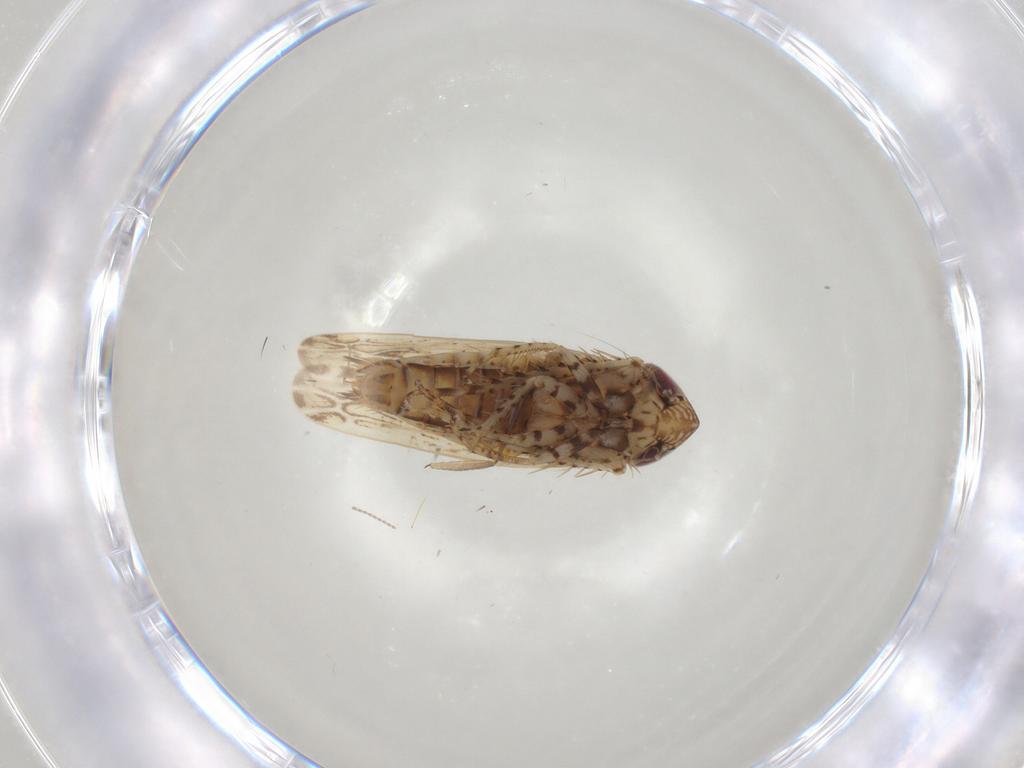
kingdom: Animalia
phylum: Arthropoda
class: Insecta
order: Hemiptera
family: Cicadellidae
